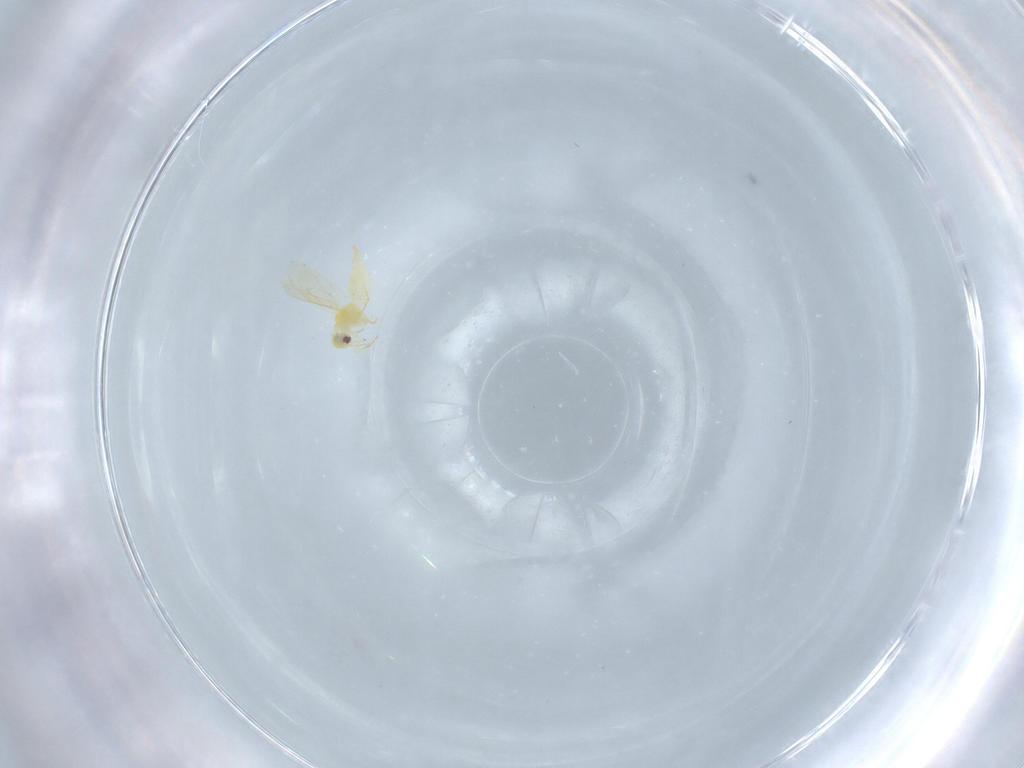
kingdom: Animalia
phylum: Arthropoda
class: Insecta
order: Hemiptera
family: Aleyrodidae
